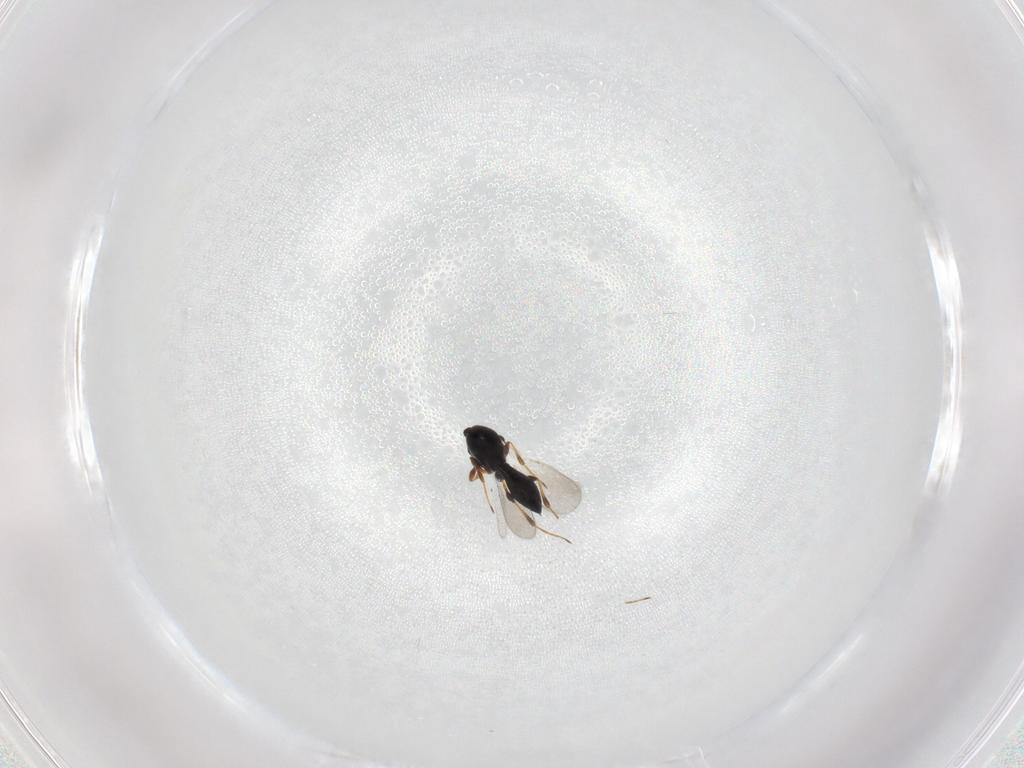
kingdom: Animalia
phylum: Arthropoda
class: Insecta
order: Hymenoptera
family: Platygastridae
